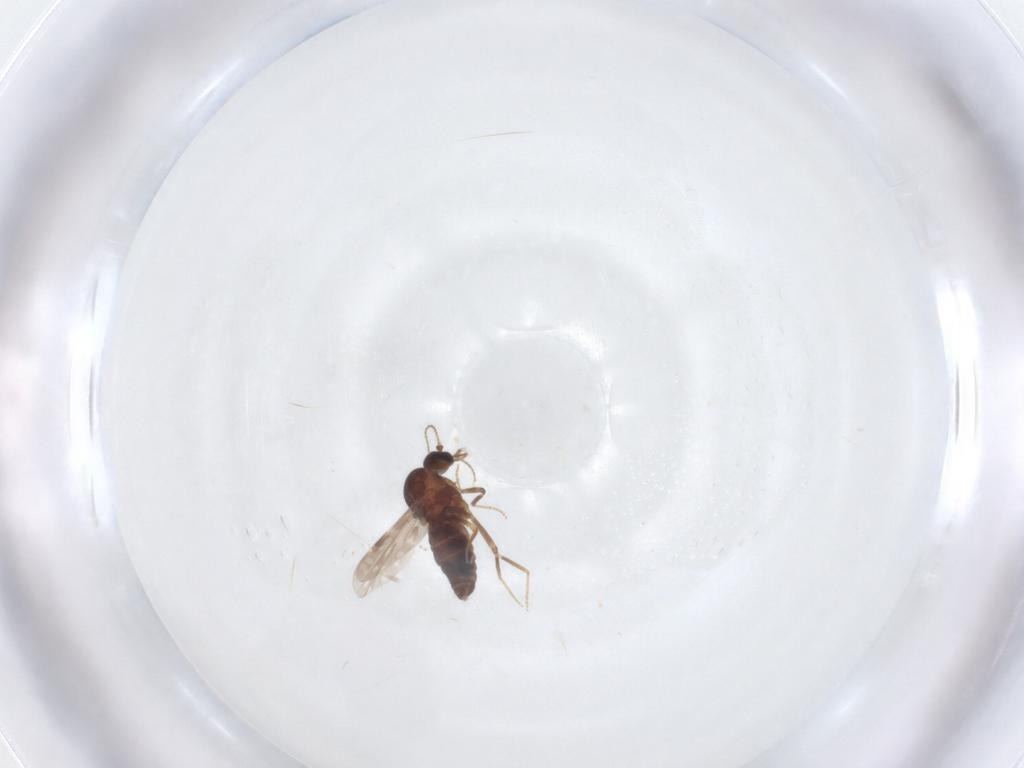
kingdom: Animalia
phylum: Arthropoda
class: Insecta
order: Diptera
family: Ceratopogonidae
